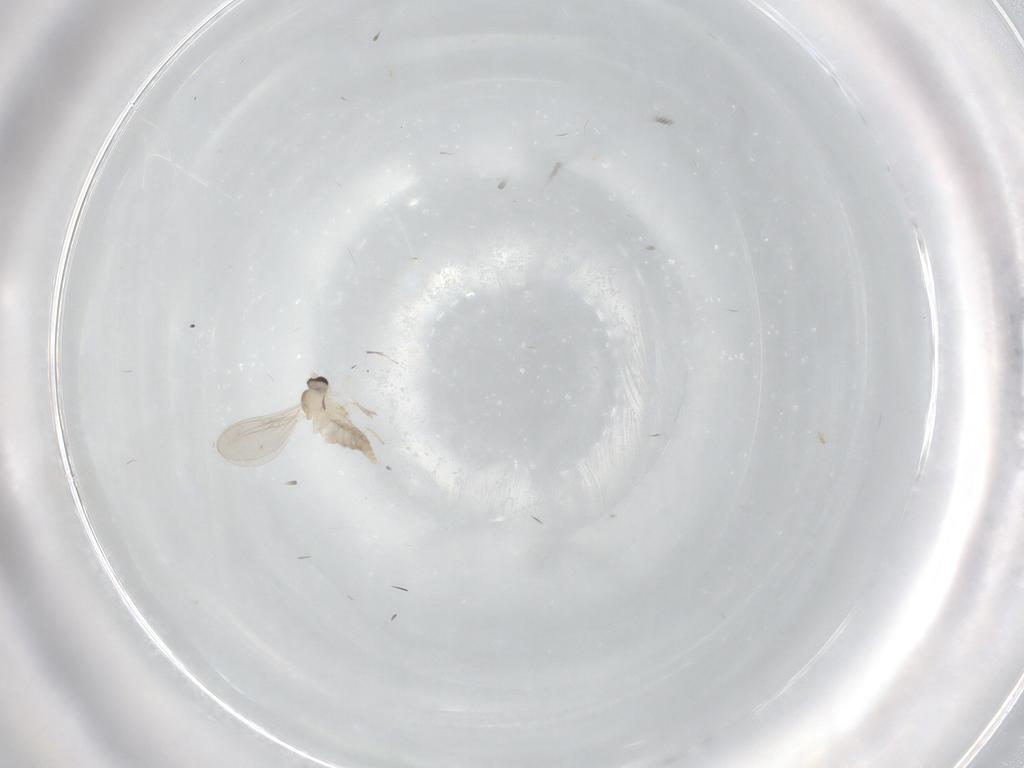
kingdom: Animalia
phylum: Arthropoda
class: Insecta
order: Diptera
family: Cecidomyiidae
